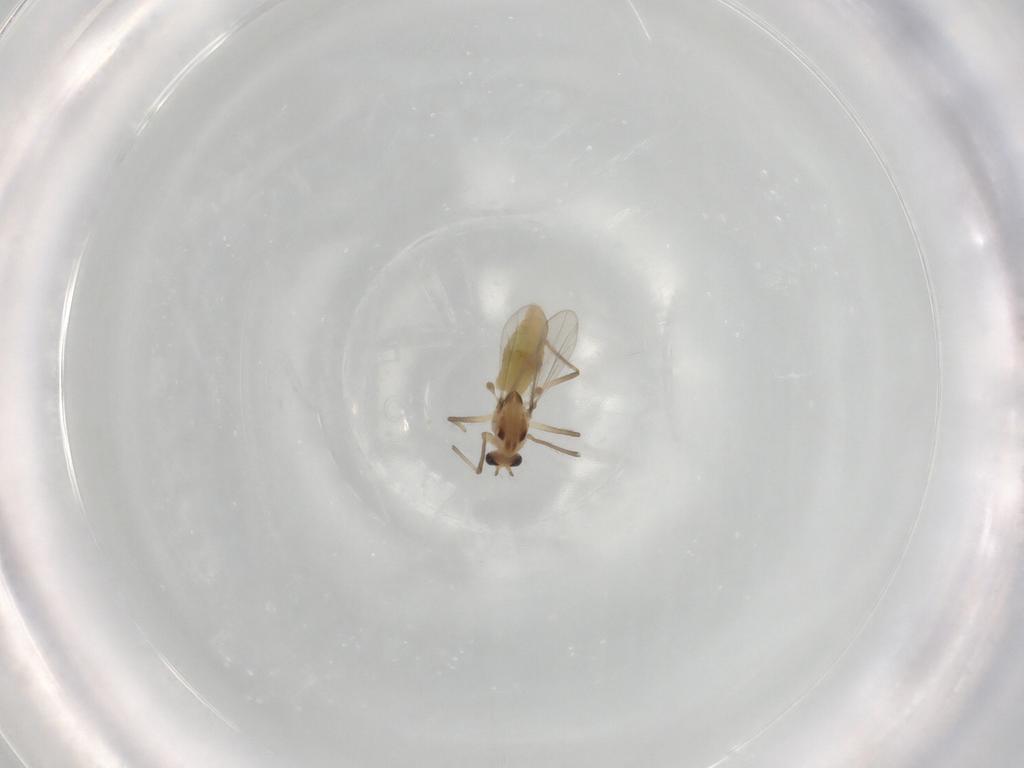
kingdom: Animalia
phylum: Arthropoda
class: Insecta
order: Diptera
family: Chironomidae
